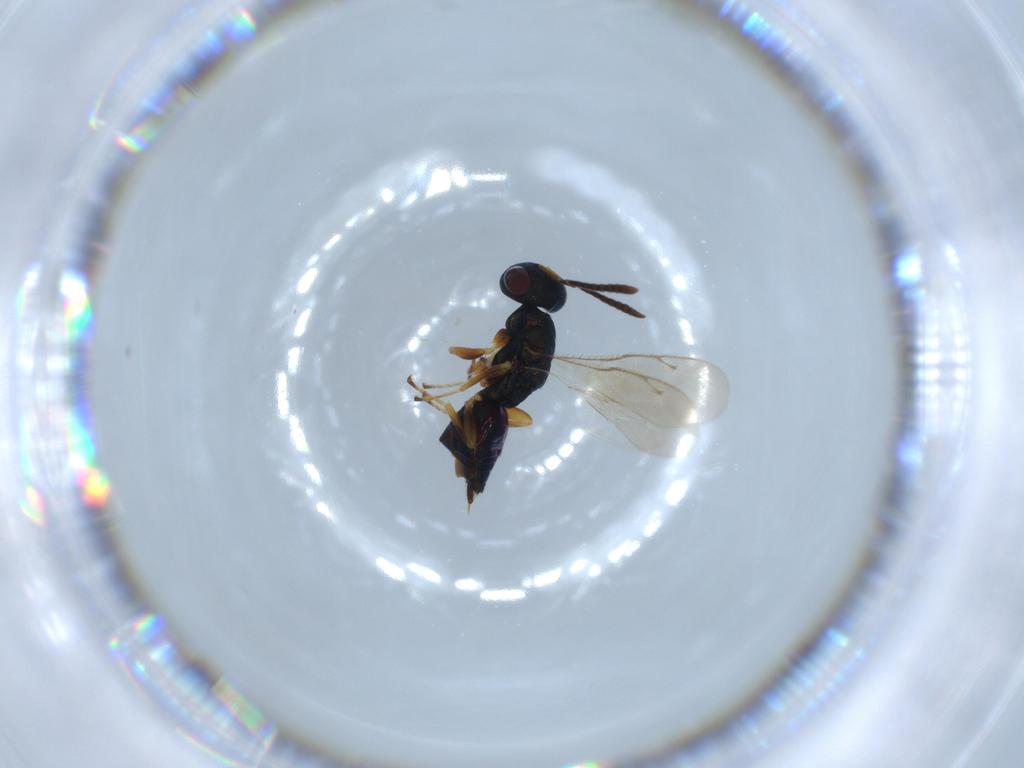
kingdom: Animalia
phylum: Arthropoda
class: Insecta
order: Hymenoptera
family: Pteromalidae
